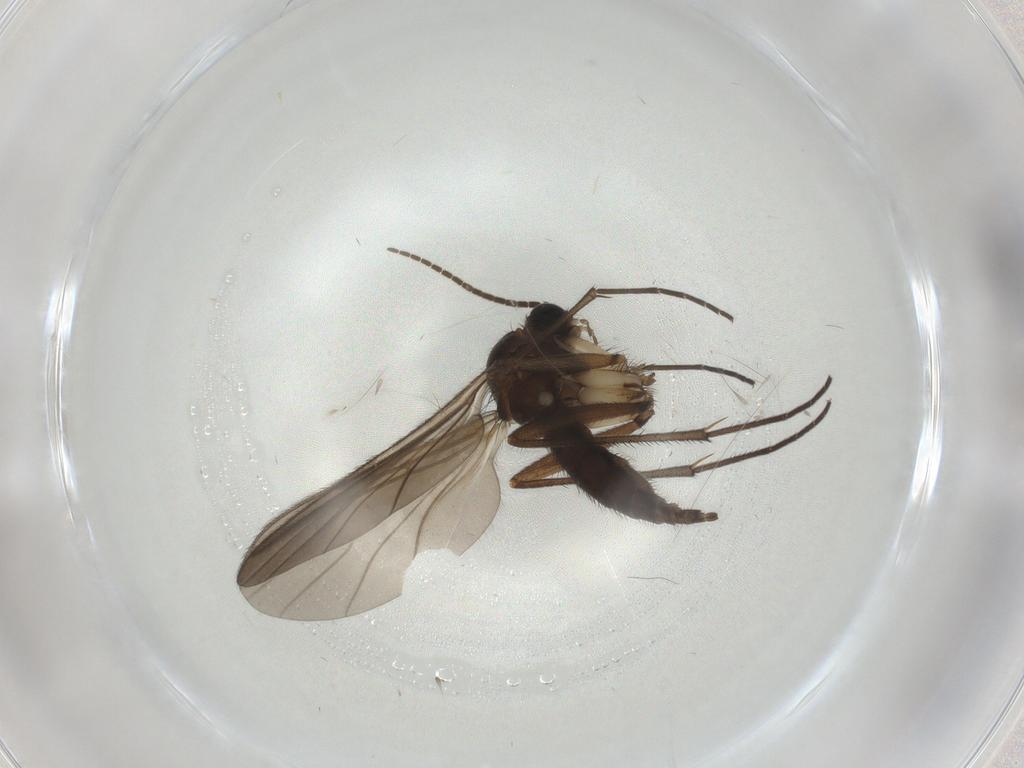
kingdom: Animalia
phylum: Arthropoda
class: Insecta
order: Diptera
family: Sciaridae
